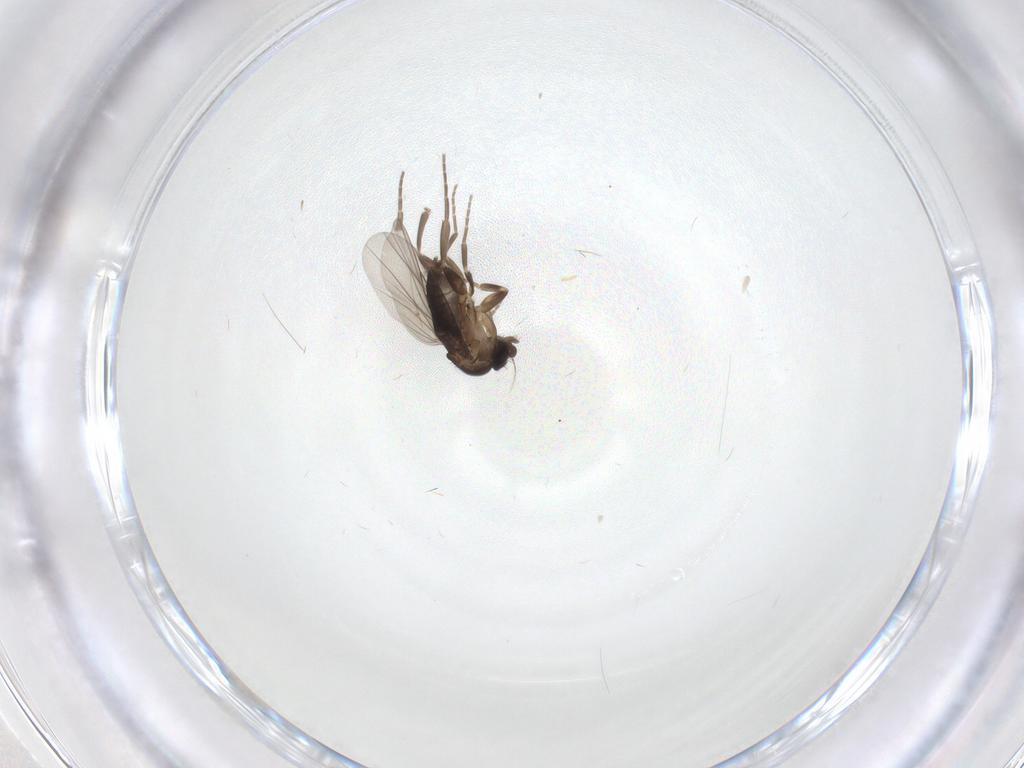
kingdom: Animalia
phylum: Arthropoda
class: Insecta
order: Diptera
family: Phoridae
